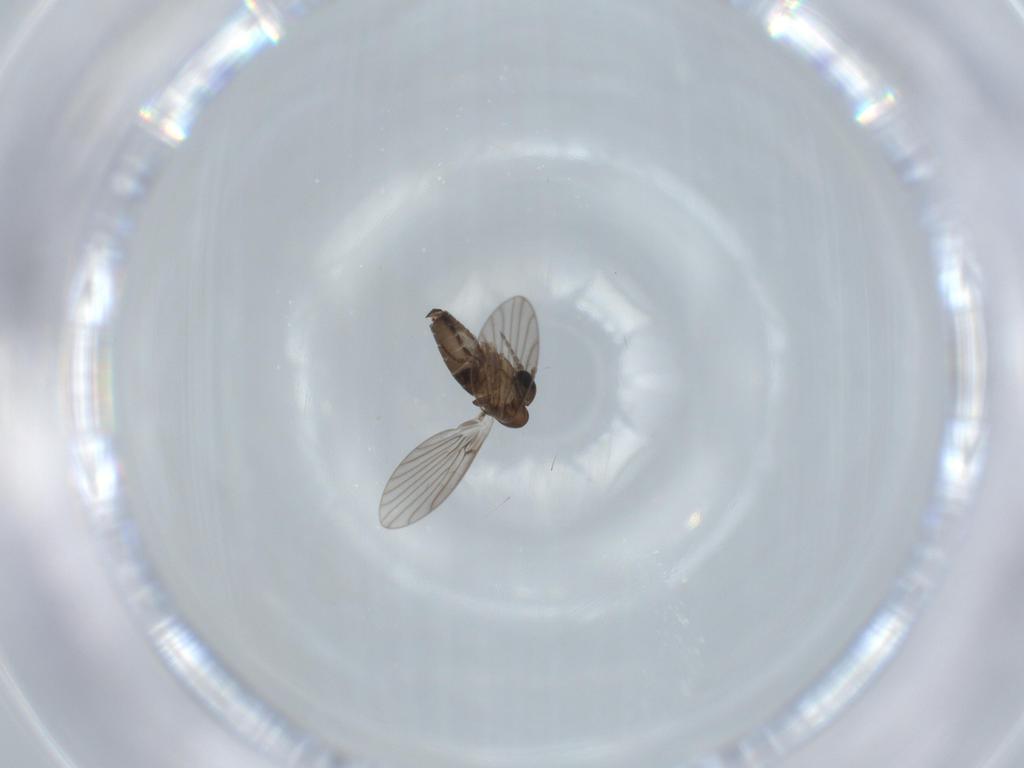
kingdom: Animalia
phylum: Arthropoda
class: Insecta
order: Diptera
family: Psychodidae
